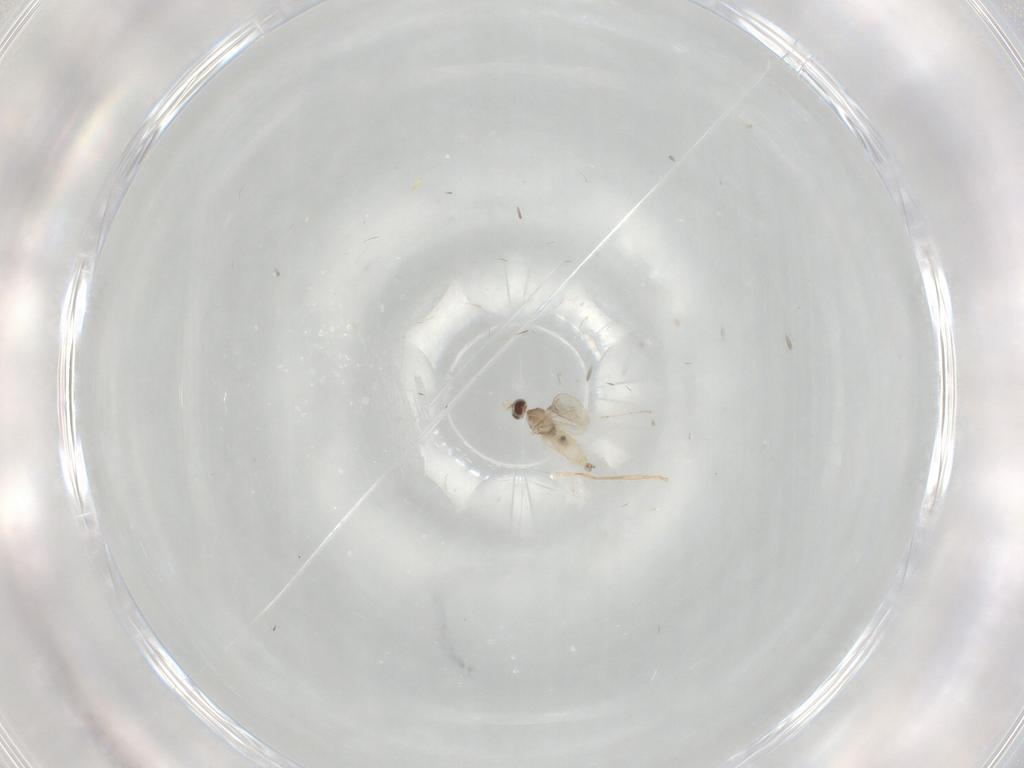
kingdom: Animalia
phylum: Arthropoda
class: Insecta
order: Diptera
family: Cecidomyiidae
